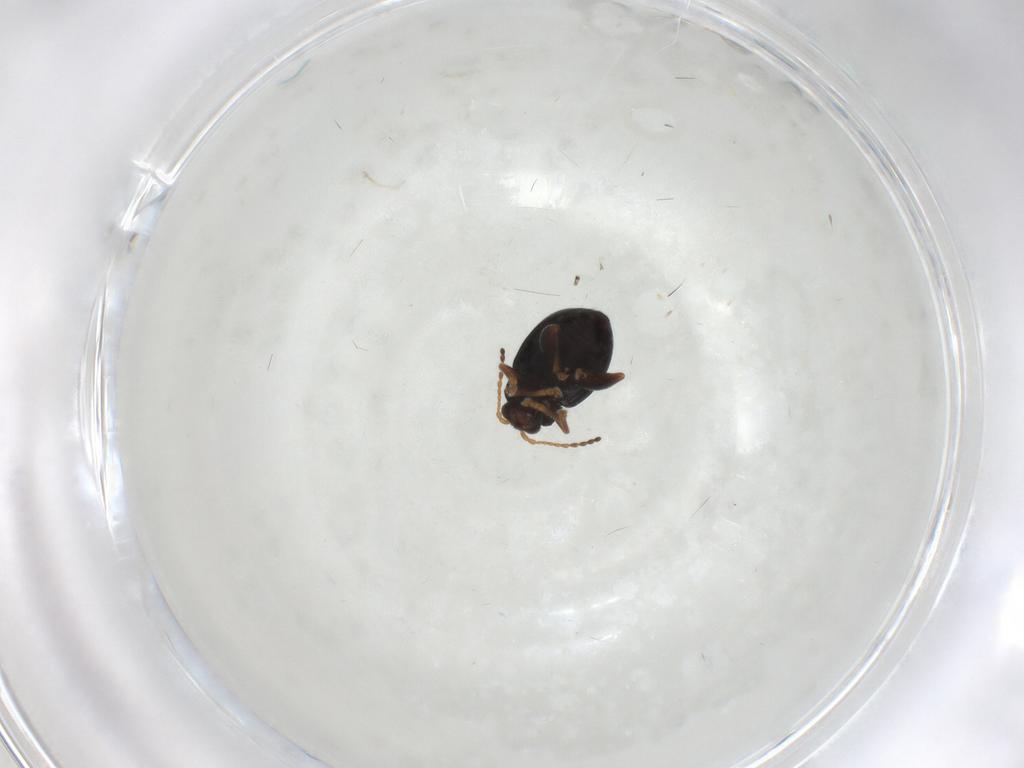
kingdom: Animalia
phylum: Arthropoda
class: Insecta
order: Coleoptera
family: Chrysomelidae
